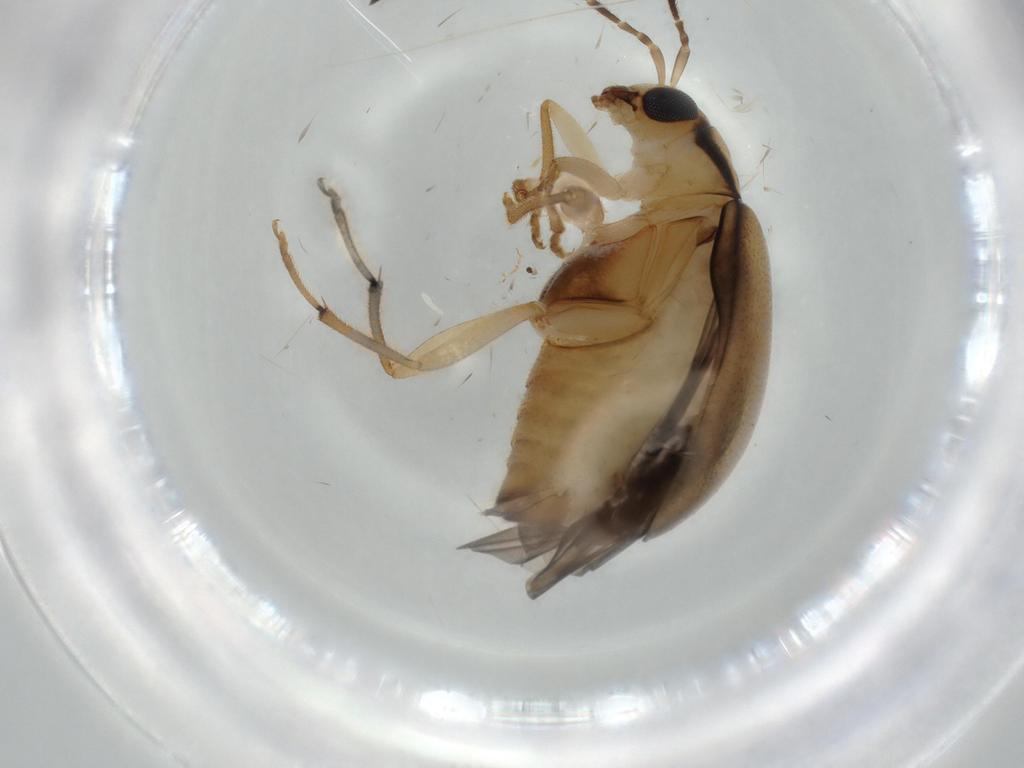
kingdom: Animalia
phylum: Arthropoda
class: Insecta
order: Coleoptera
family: Chrysomelidae
